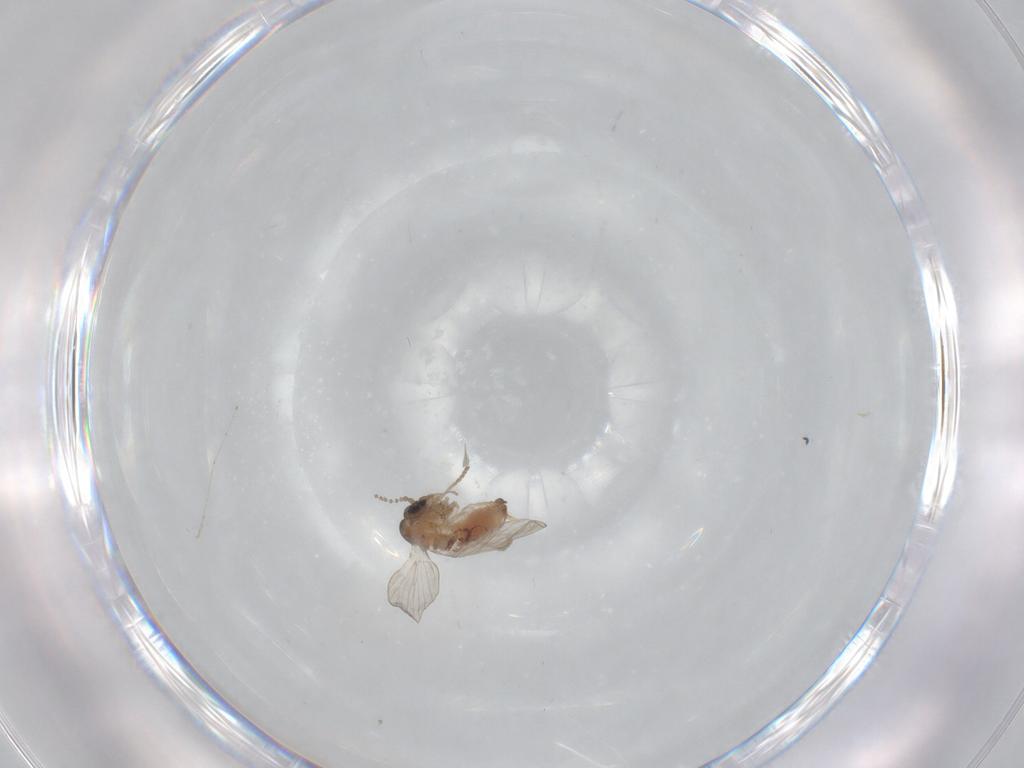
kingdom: Animalia
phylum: Arthropoda
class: Insecta
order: Diptera
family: Psychodidae
